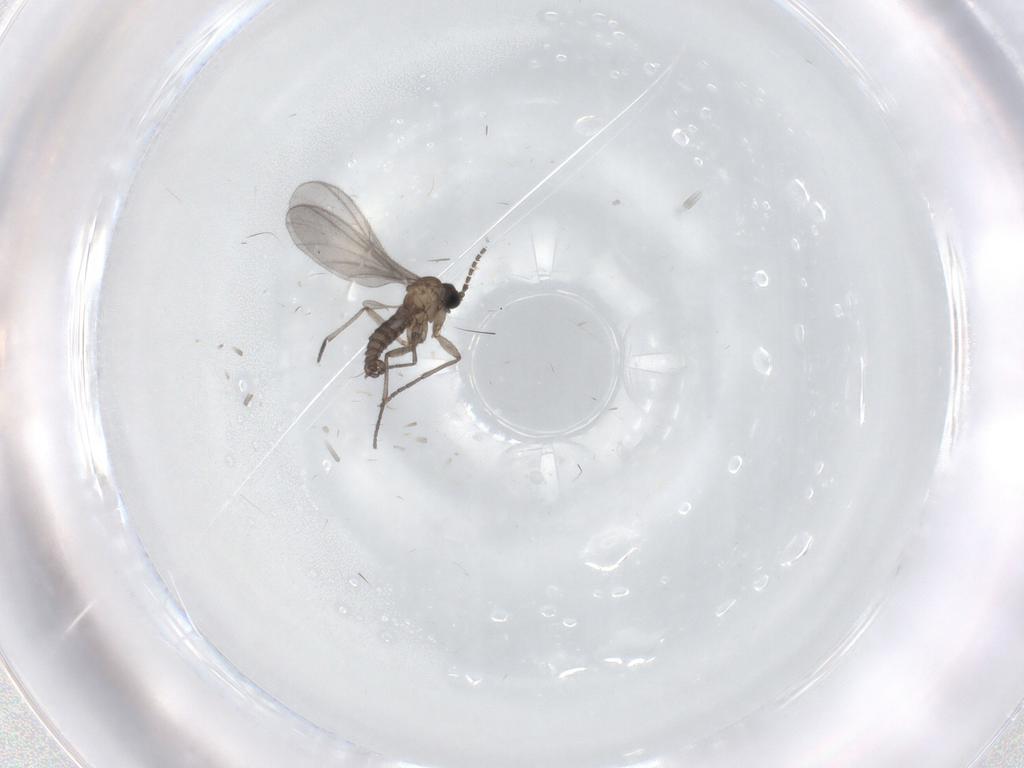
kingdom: Animalia
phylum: Arthropoda
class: Insecta
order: Diptera
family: Sciaridae
